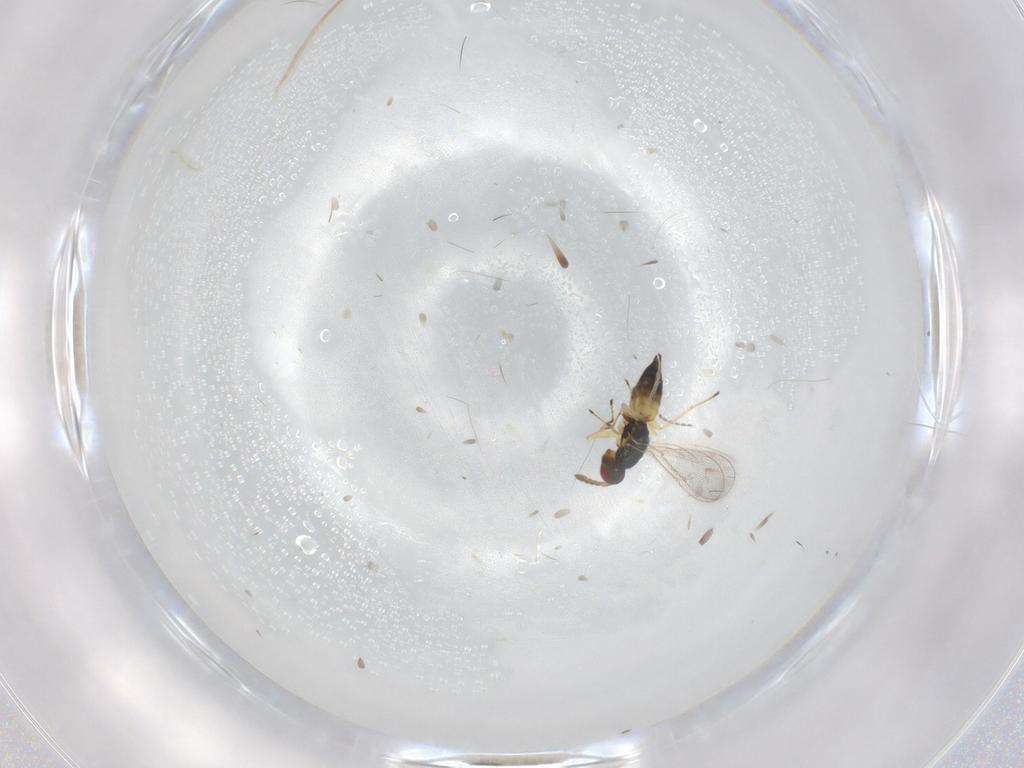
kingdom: Animalia
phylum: Arthropoda
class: Insecta
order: Hymenoptera
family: Eulophidae
